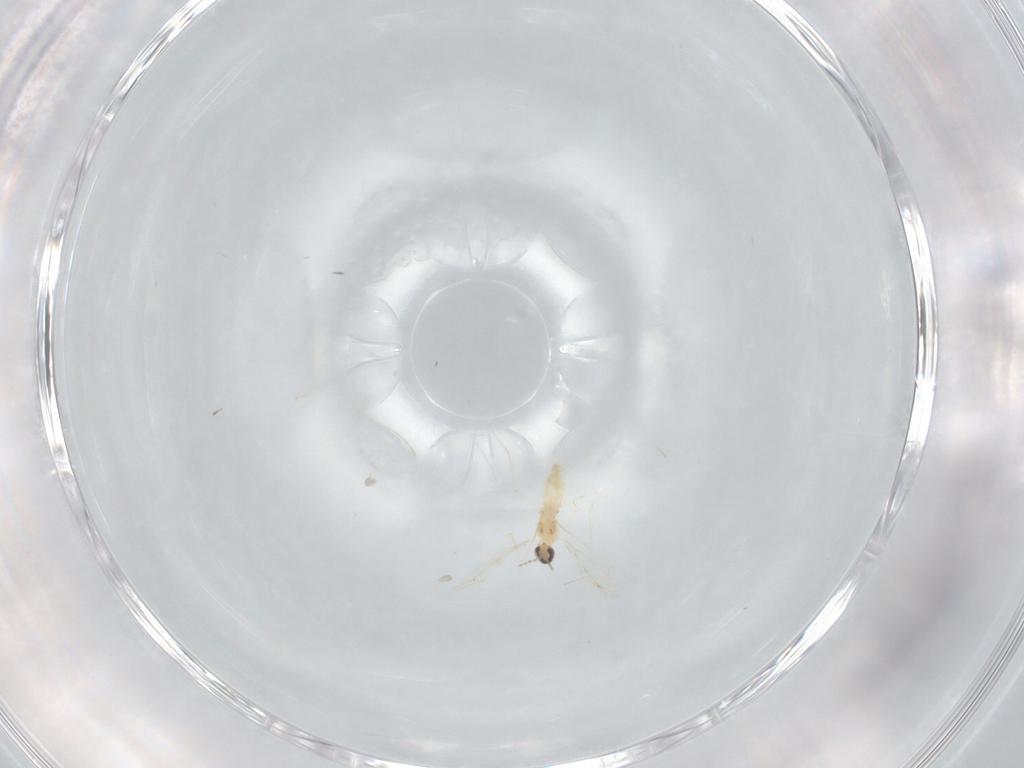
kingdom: Animalia
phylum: Arthropoda
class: Insecta
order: Diptera
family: Cecidomyiidae
